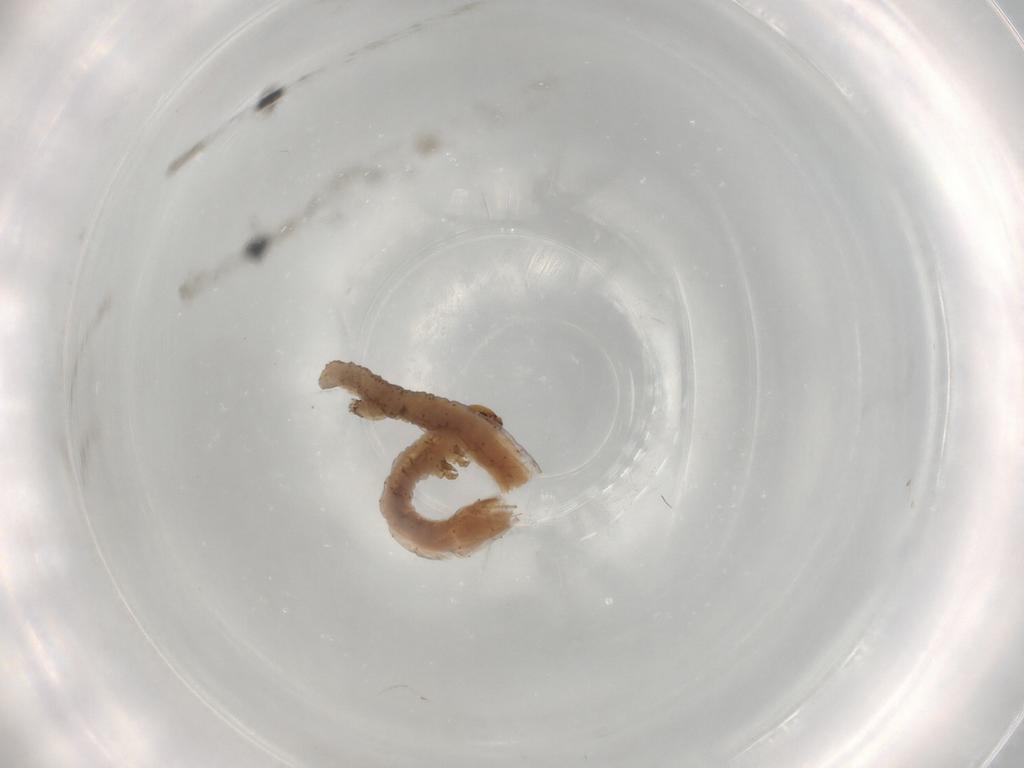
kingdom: Animalia
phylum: Arthropoda
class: Insecta
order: Lepidoptera
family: Geometridae
